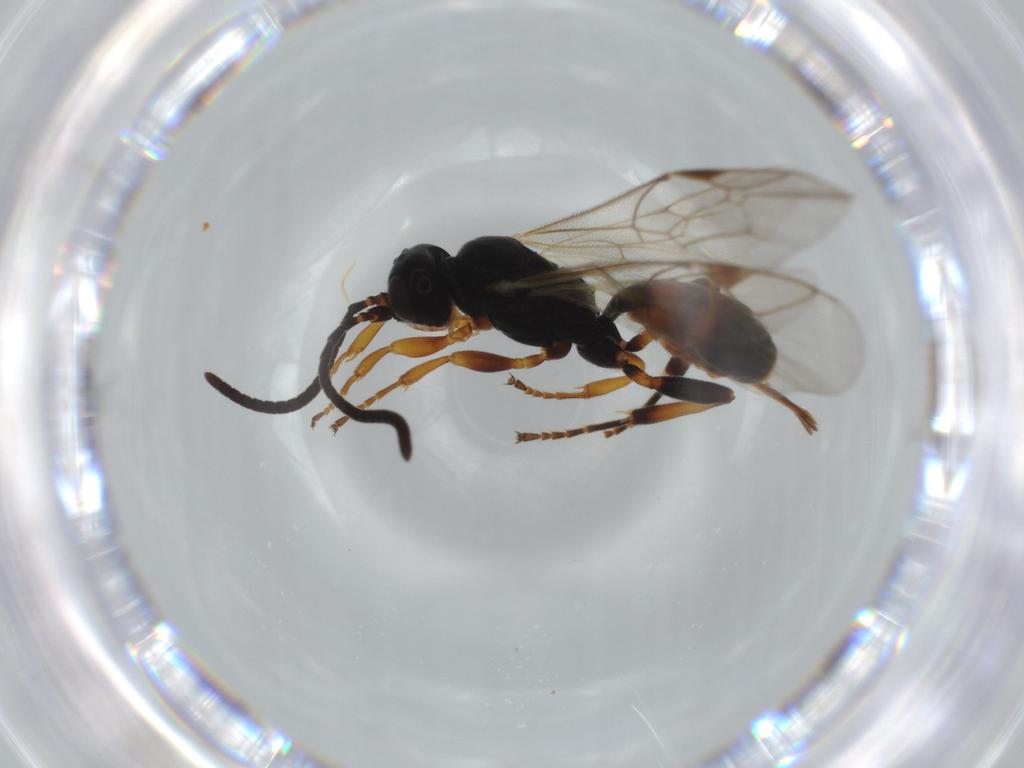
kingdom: Animalia
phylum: Arthropoda
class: Insecta
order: Hymenoptera
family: Ichneumonidae
